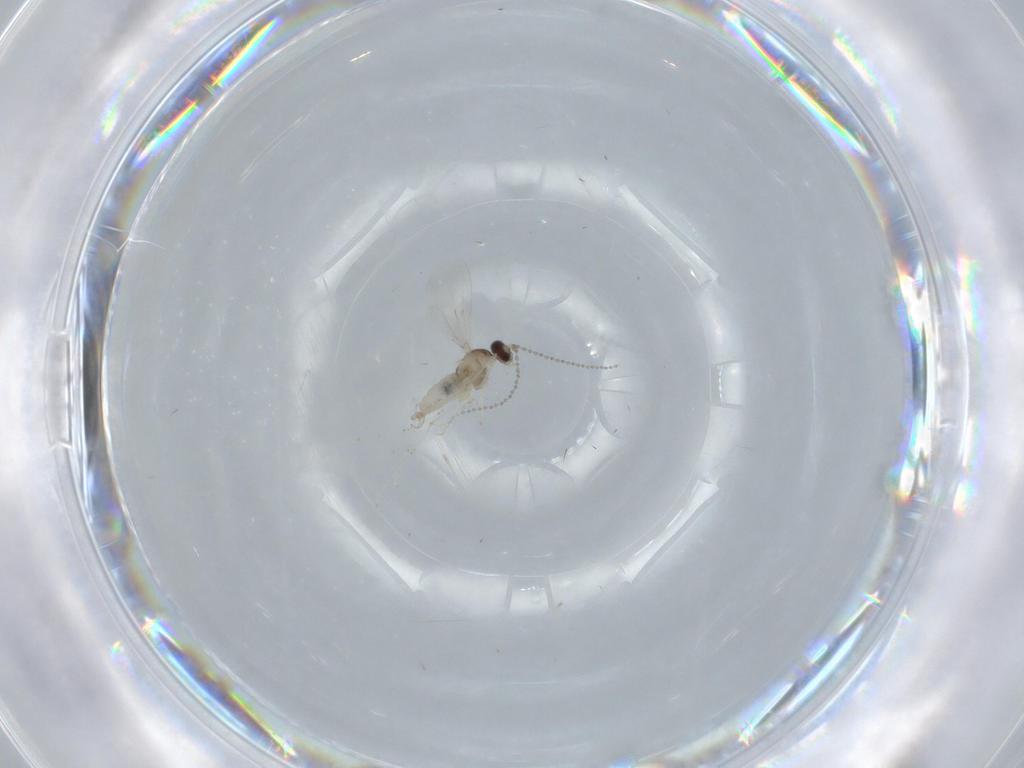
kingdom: Animalia
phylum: Arthropoda
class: Insecta
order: Diptera
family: Cecidomyiidae
